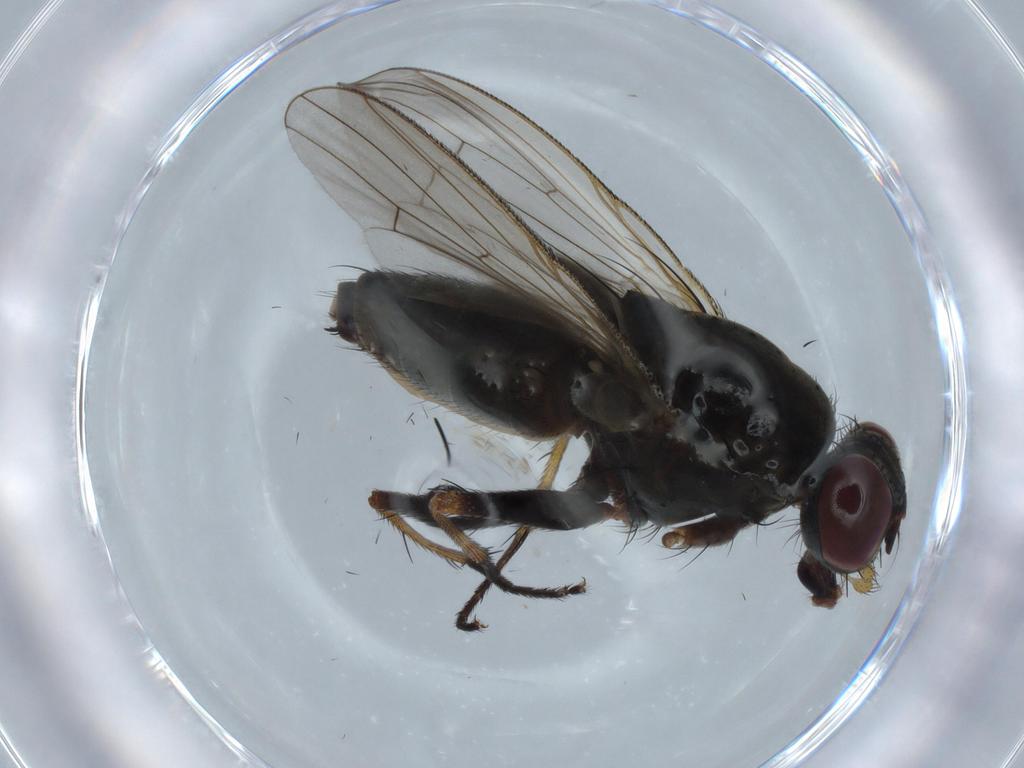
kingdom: Animalia
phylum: Arthropoda
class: Insecta
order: Diptera
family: Muscidae
